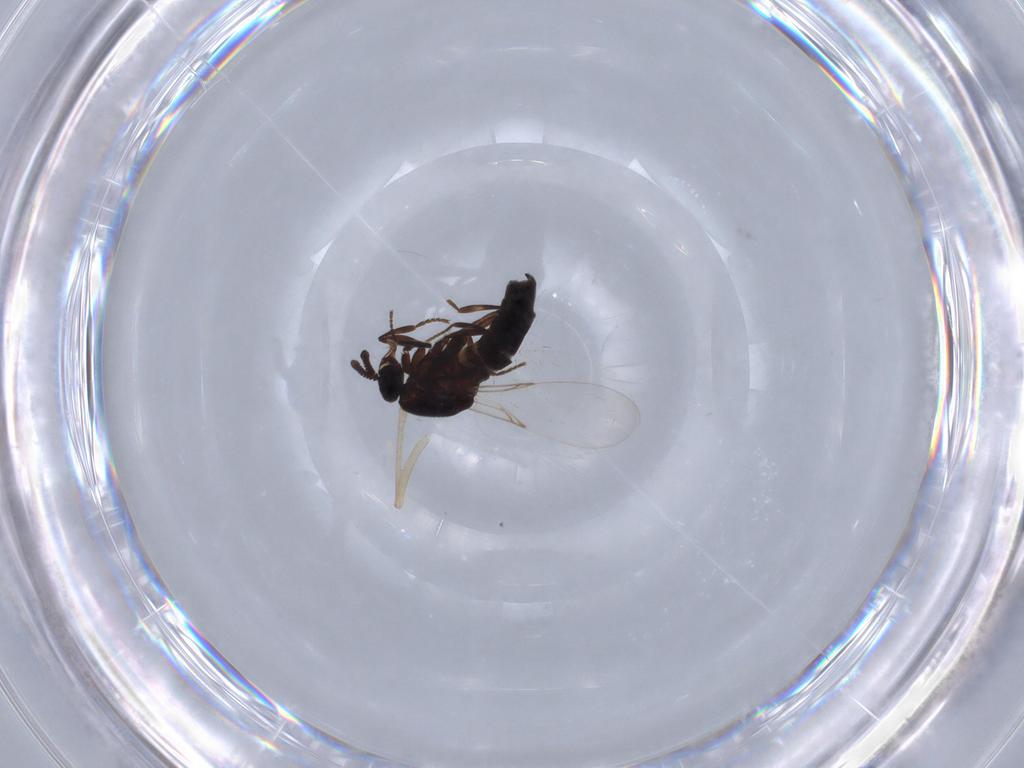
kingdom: Animalia
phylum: Arthropoda
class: Insecta
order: Diptera
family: Scatopsidae
